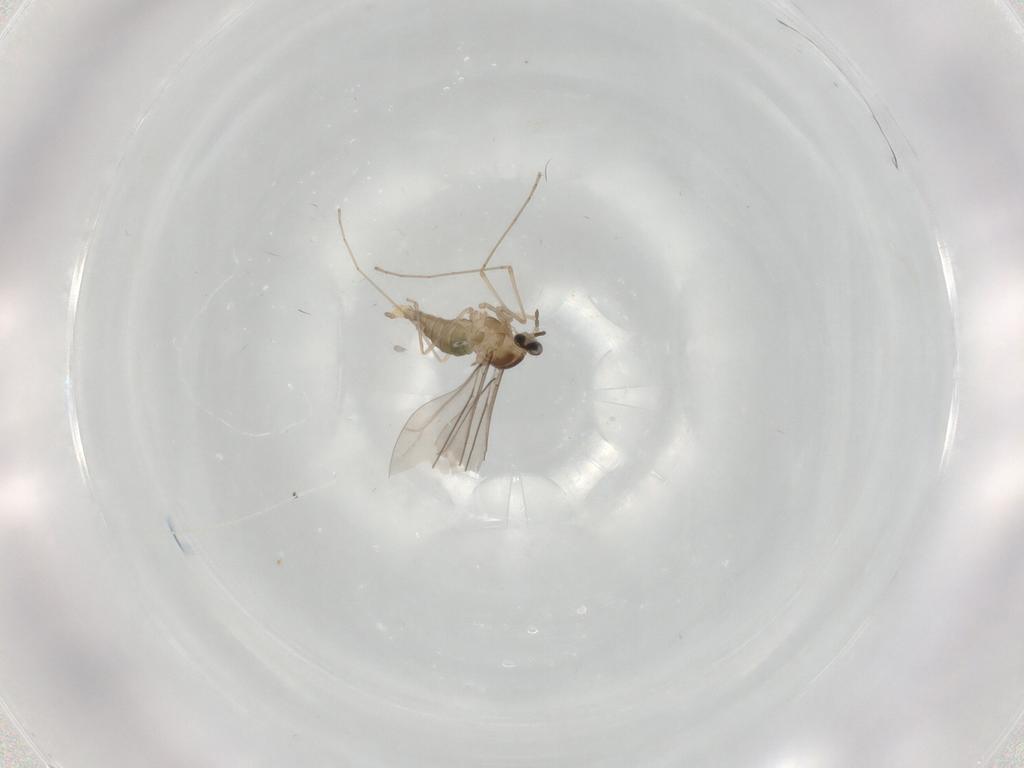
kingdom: Animalia
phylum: Arthropoda
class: Insecta
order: Diptera
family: Cecidomyiidae
